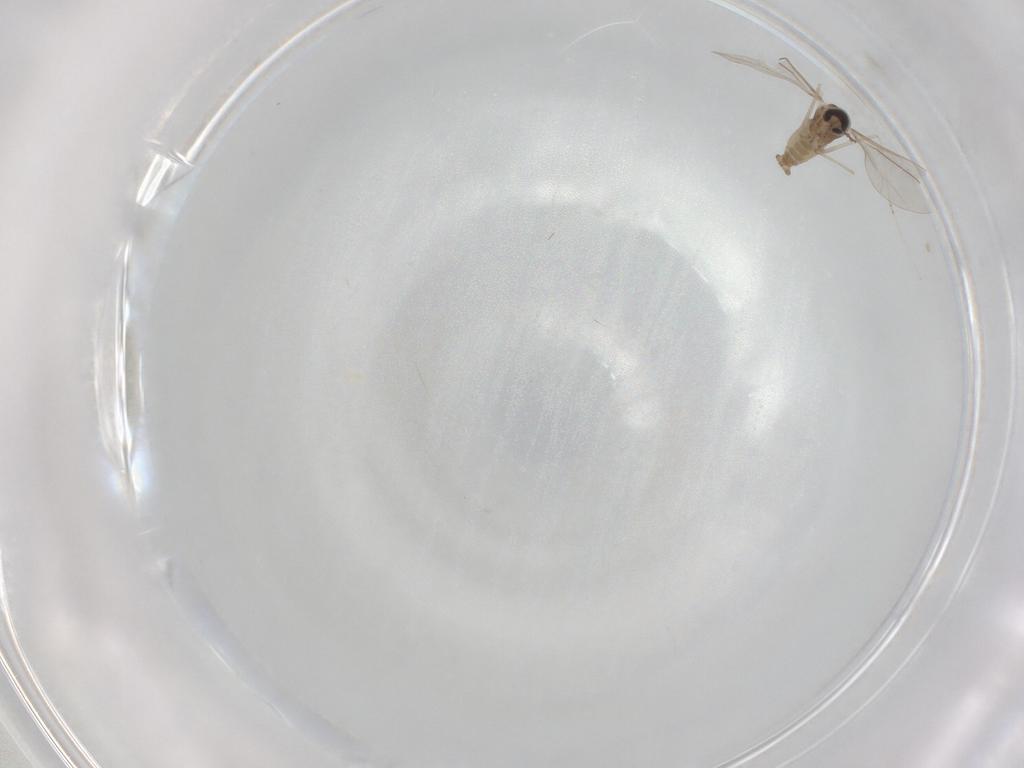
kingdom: Animalia
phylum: Arthropoda
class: Insecta
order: Diptera
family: Cecidomyiidae
